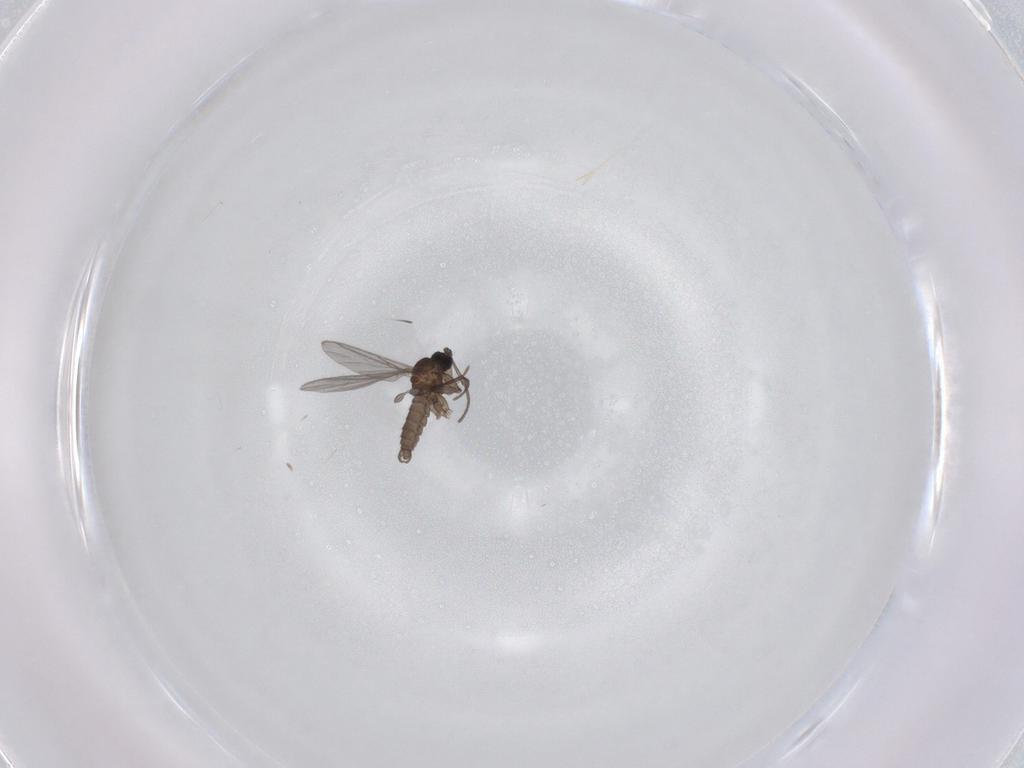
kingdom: Animalia
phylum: Arthropoda
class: Insecta
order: Diptera
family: Sciaridae
